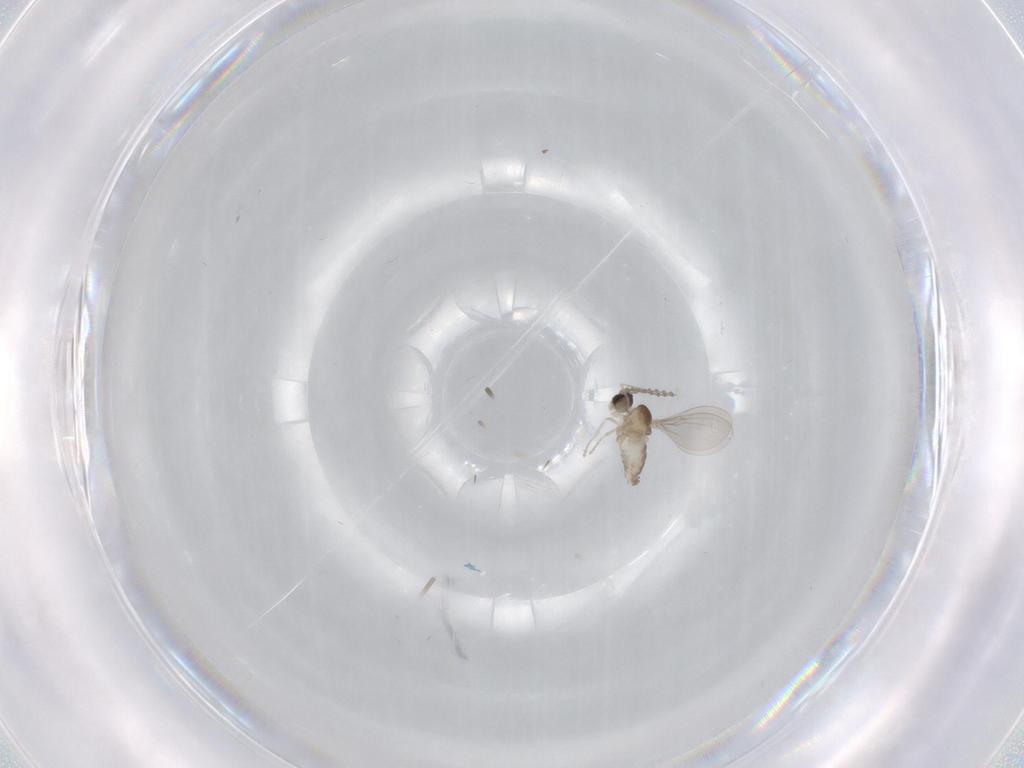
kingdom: Animalia
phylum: Arthropoda
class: Insecta
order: Diptera
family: Cecidomyiidae
